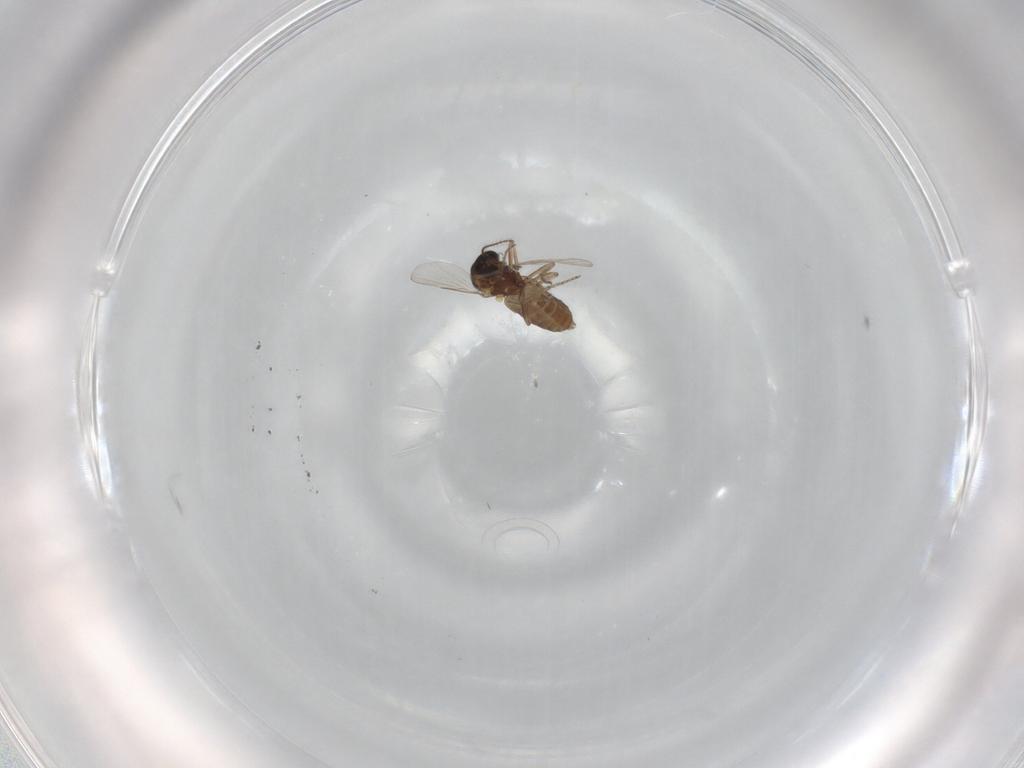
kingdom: Animalia
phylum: Arthropoda
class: Insecta
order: Diptera
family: Ceratopogonidae
